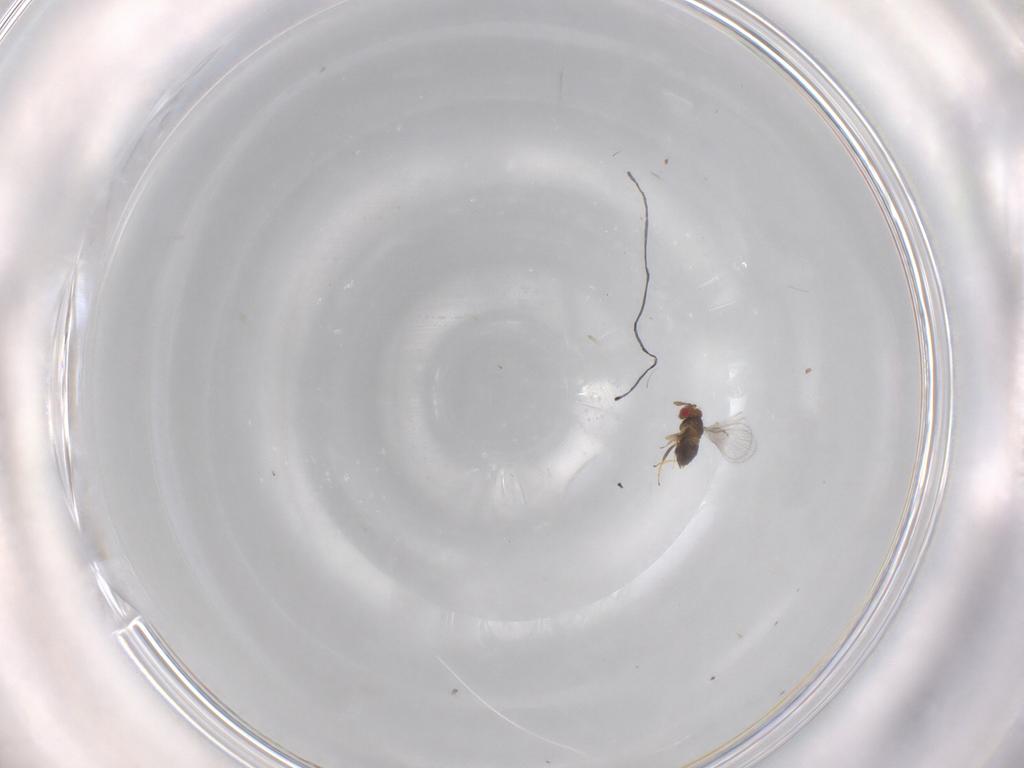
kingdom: Animalia
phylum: Arthropoda
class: Insecta
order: Hymenoptera
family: Trichogrammatidae
